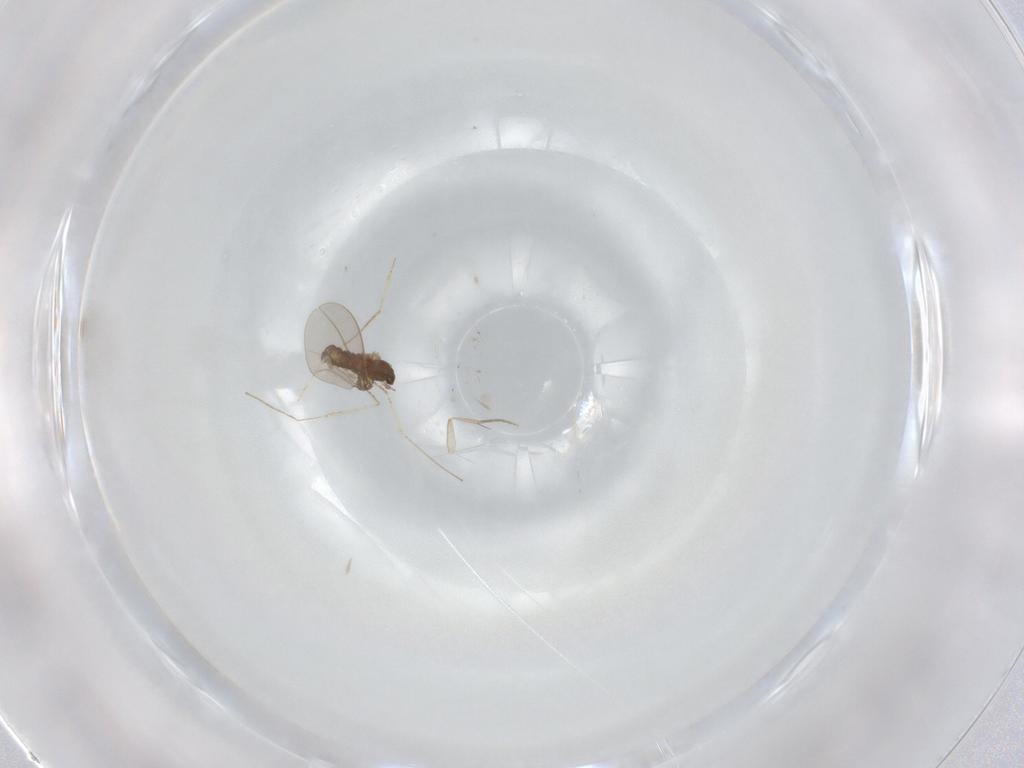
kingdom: Animalia
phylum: Arthropoda
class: Insecta
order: Diptera
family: Cecidomyiidae
